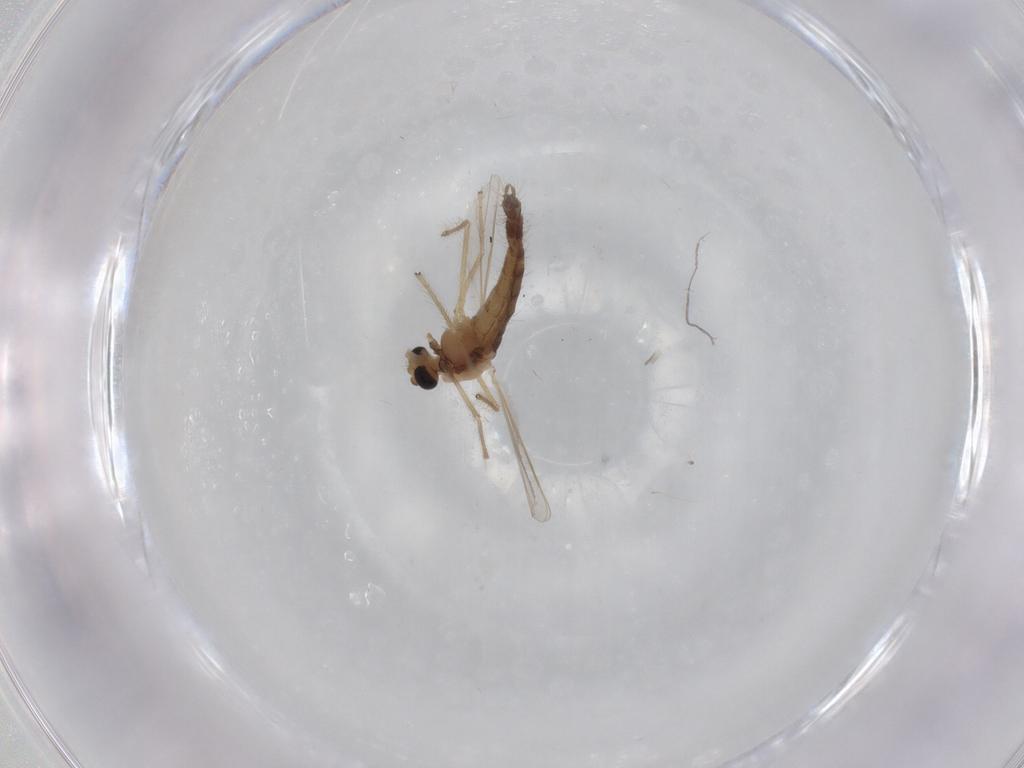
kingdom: Animalia
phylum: Arthropoda
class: Insecta
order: Diptera
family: Chironomidae
